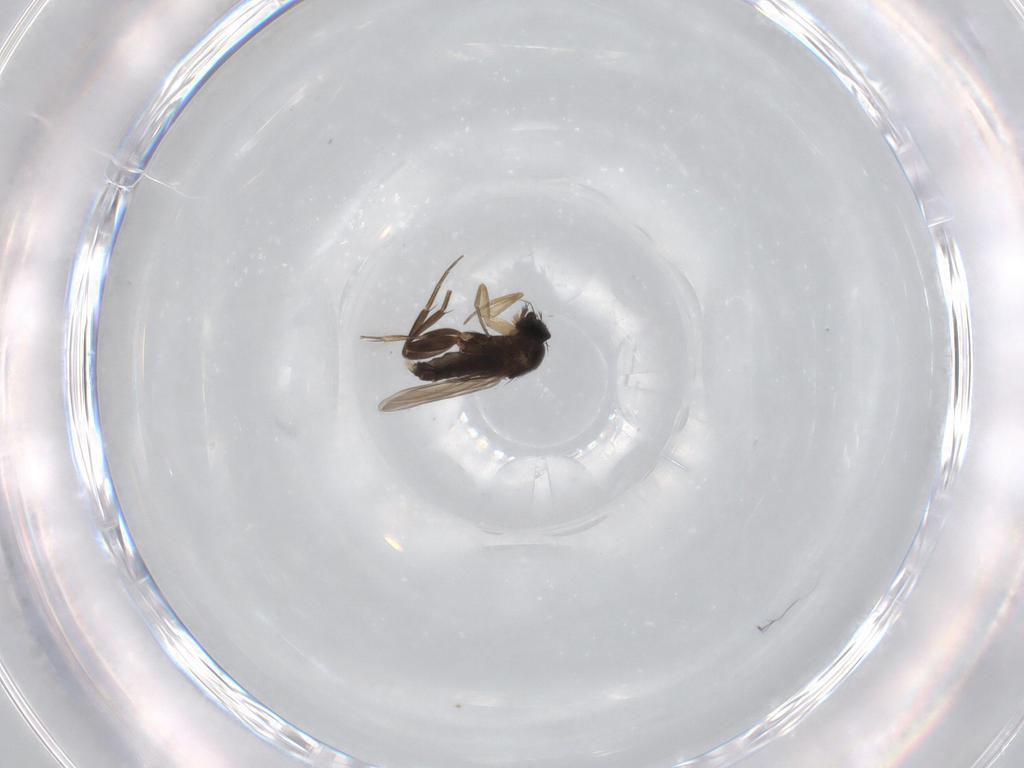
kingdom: Animalia
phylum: Arthropoda
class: Insecta
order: Diptera
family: Phoridae
